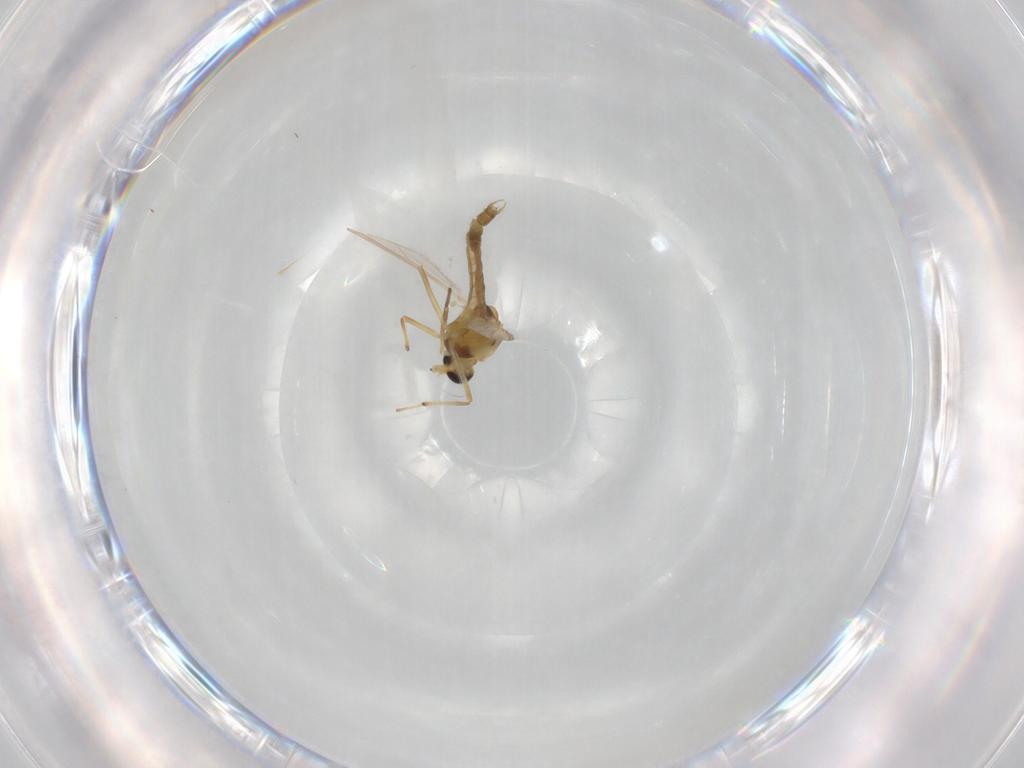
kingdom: Animalia
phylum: Arthropoda
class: Insecta
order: Diptera
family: Chironomidae
